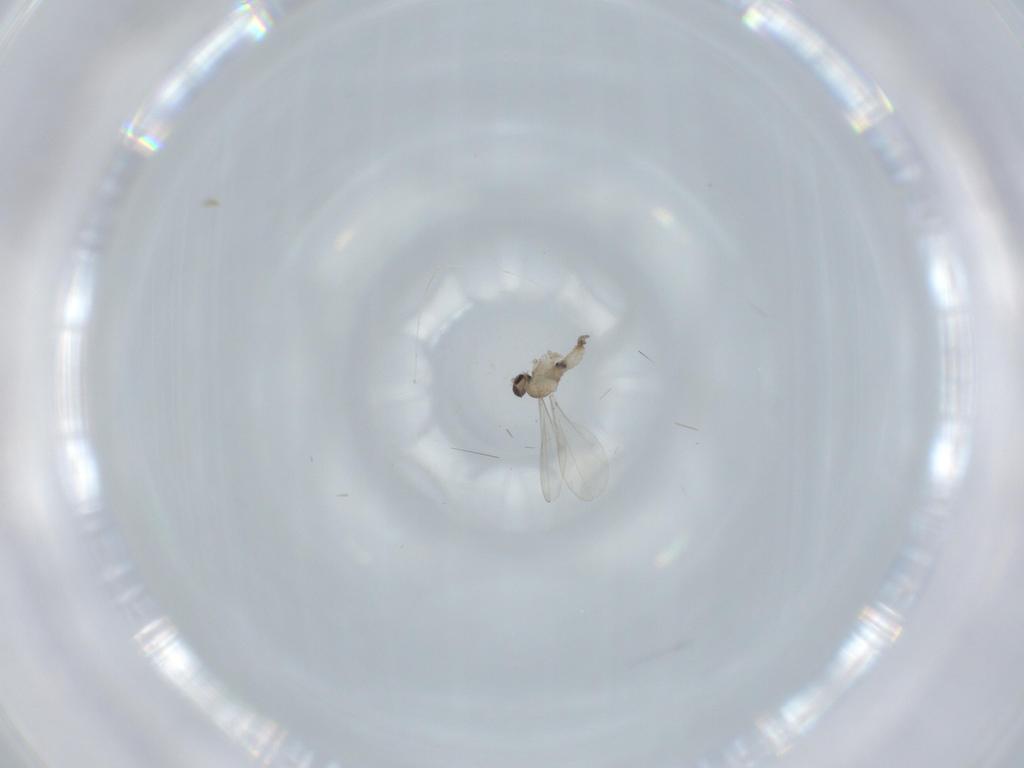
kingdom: Animalia
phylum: Arthropoda
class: Insecta
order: Diptera
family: Cecidomyiidae
